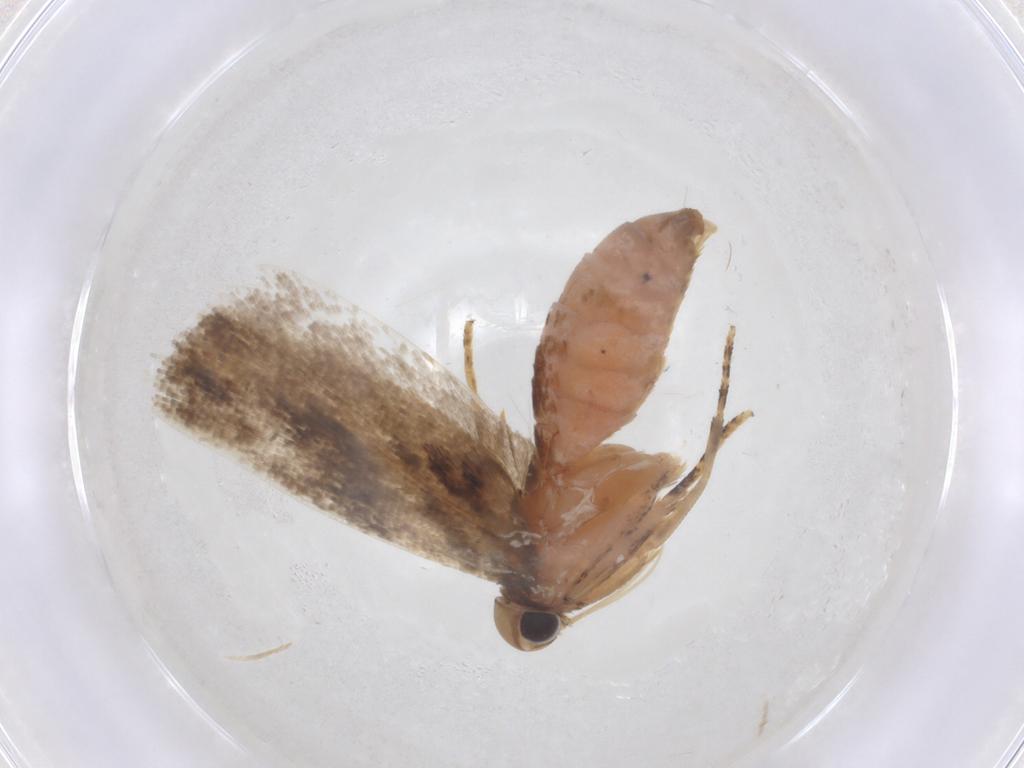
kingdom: Animalia
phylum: Arthropoda
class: Insecta
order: Lepidoptera
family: Gelechiidae
